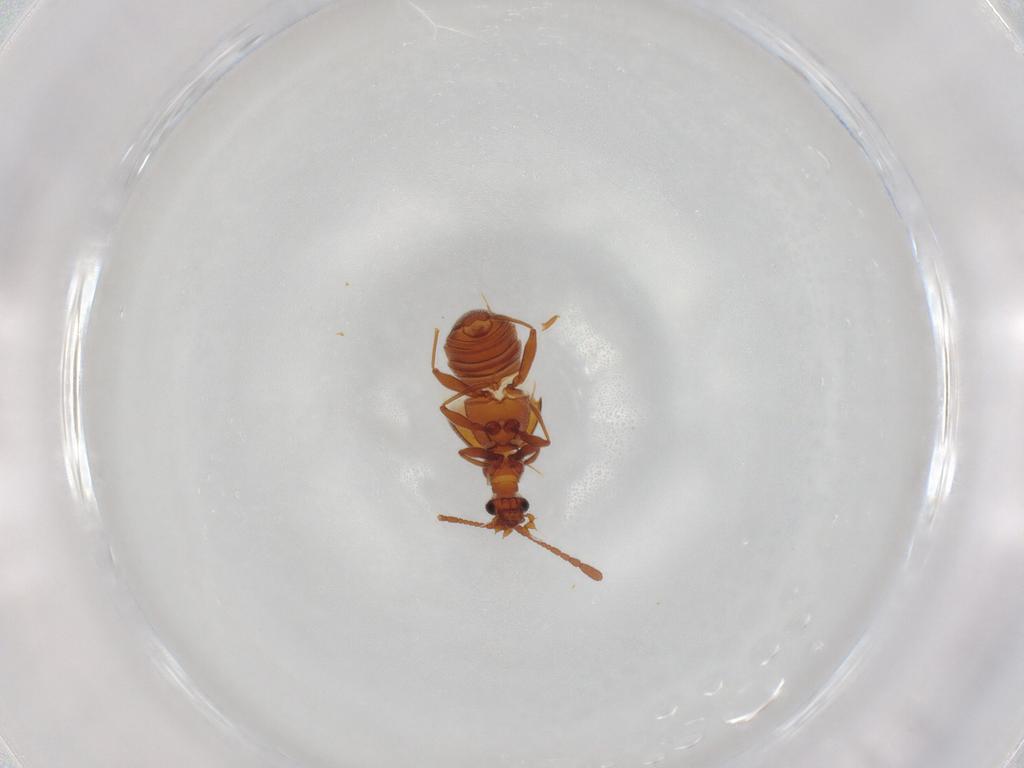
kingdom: Animalia
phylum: Arthropoda
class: Insecta
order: Coleoptera
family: Staphylinidae
